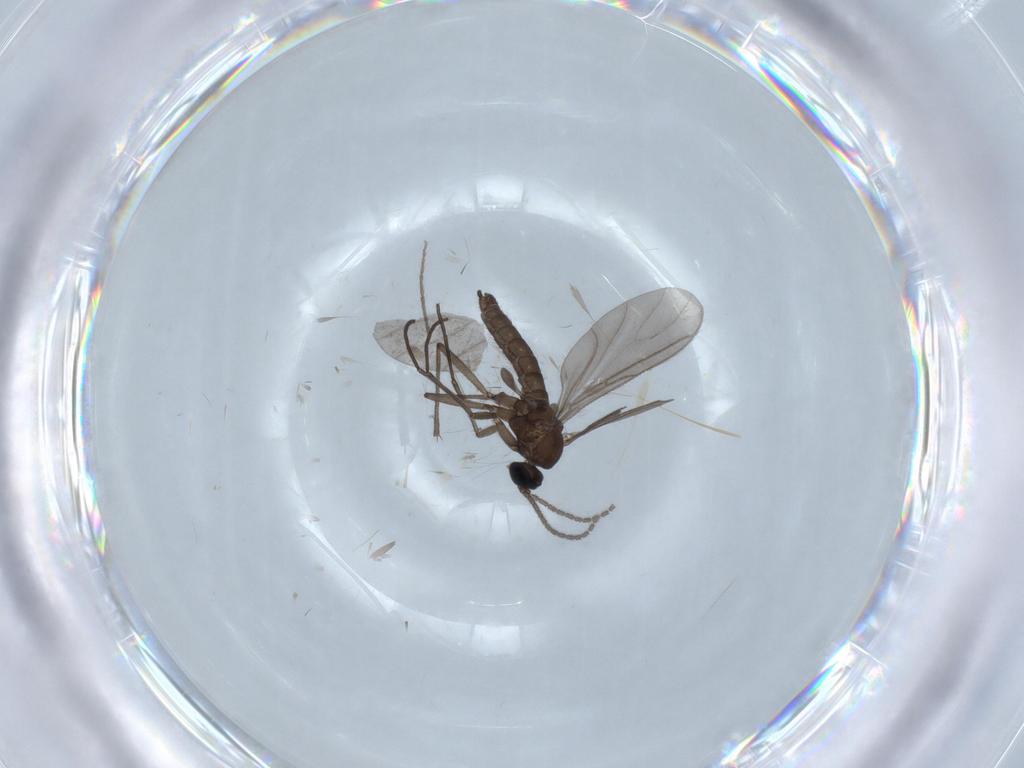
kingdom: Animalia
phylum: Arthropoda
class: Insecta
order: Diptera
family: Chironomidae
